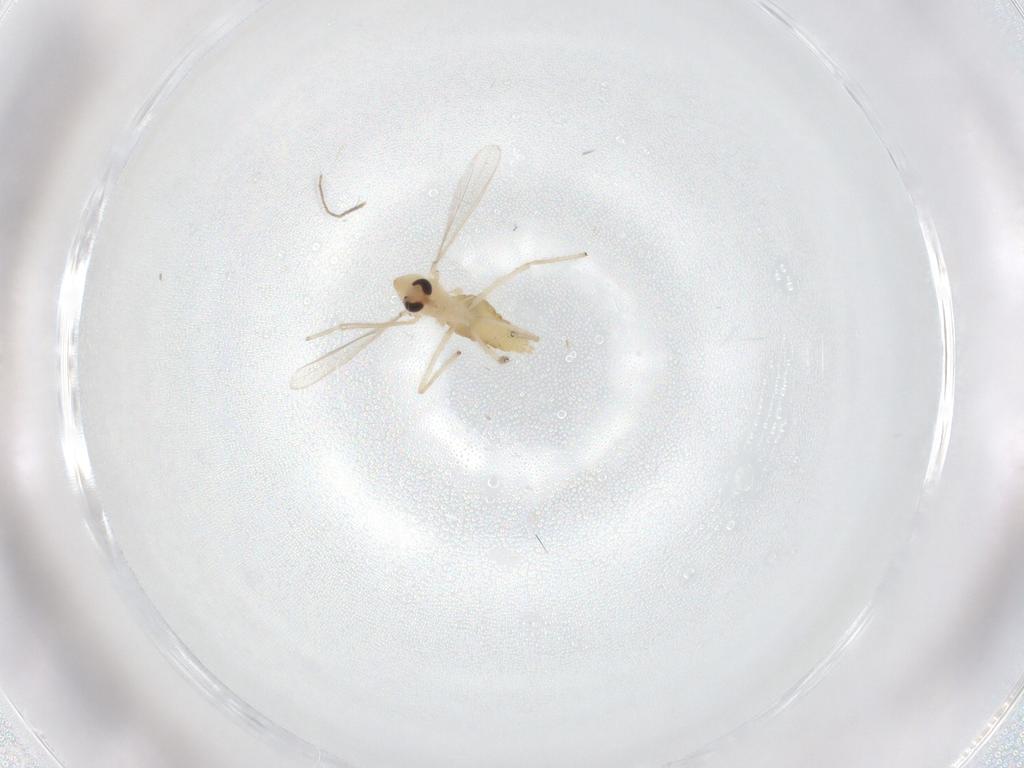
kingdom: Animalia
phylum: Arthropoda
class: Insecta
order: Diptera
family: Chironomidae
